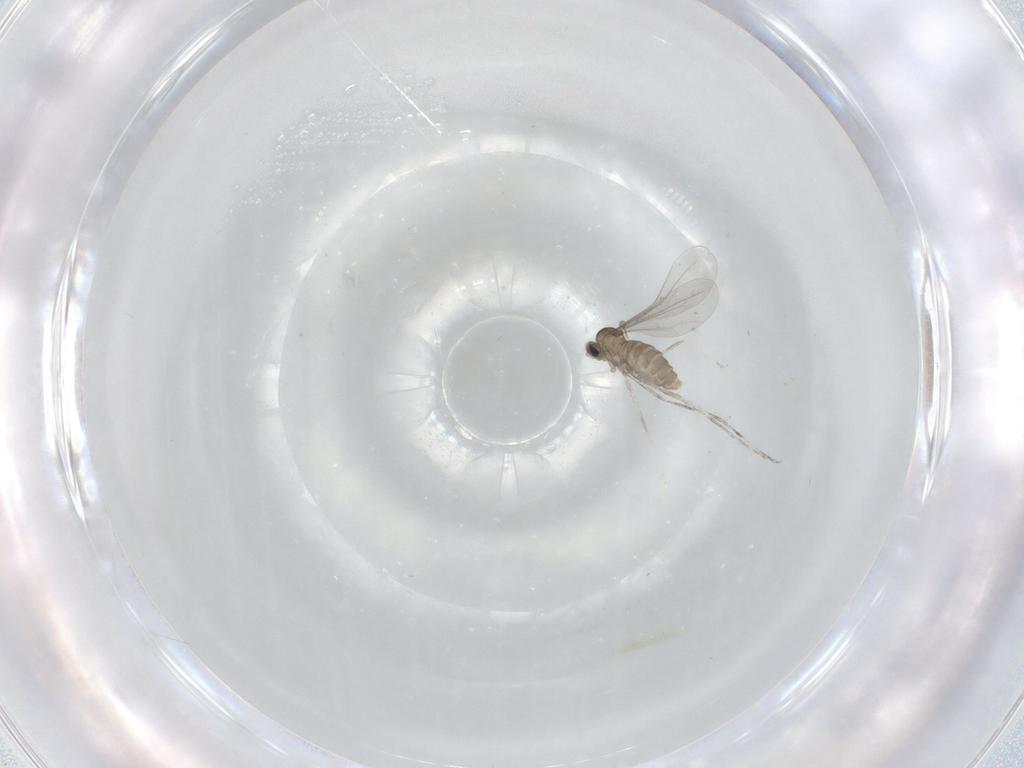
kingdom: Animalia
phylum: Arthropoda
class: Insecta
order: Diptera
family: Cecidomyiidae
